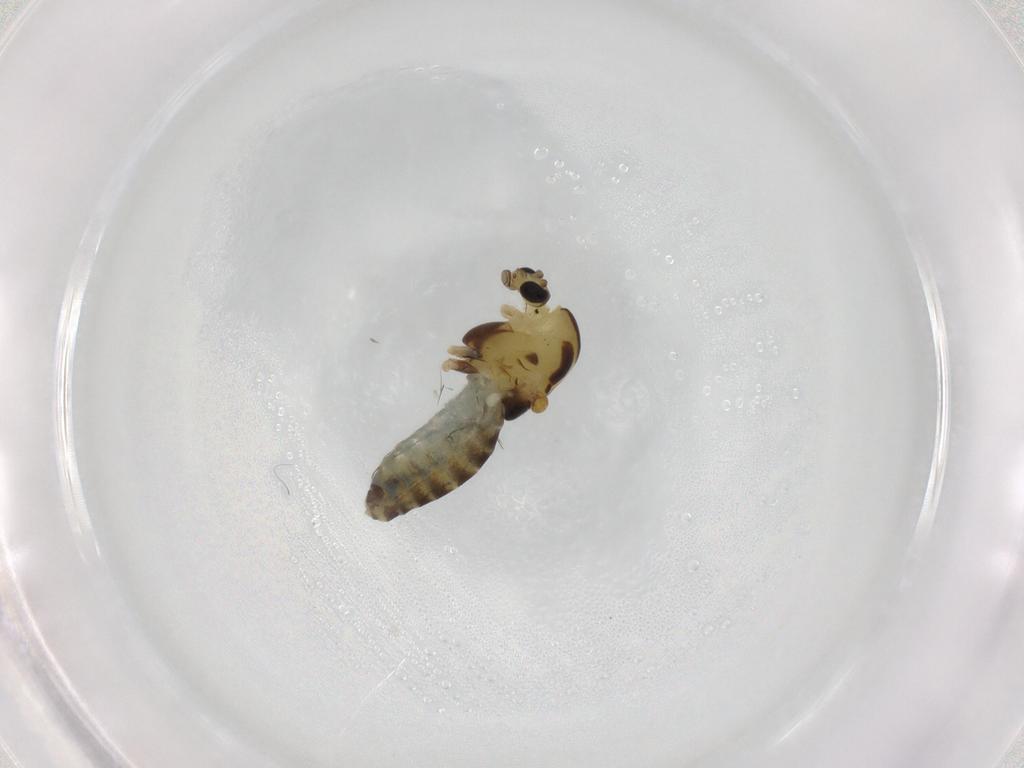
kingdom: Animalia
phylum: Arthropoda
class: Insecta
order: Diptera
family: Chironomidae
